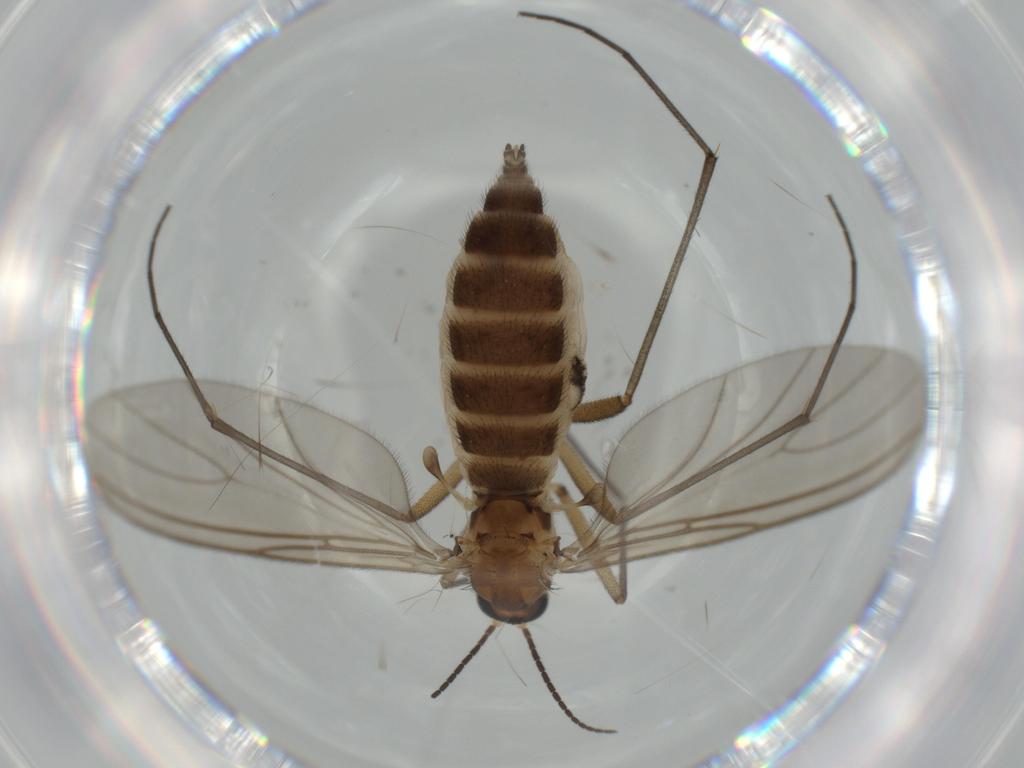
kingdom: Animalia
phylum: Arthropoda
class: Insecta
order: Diptera
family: Sciaridae
